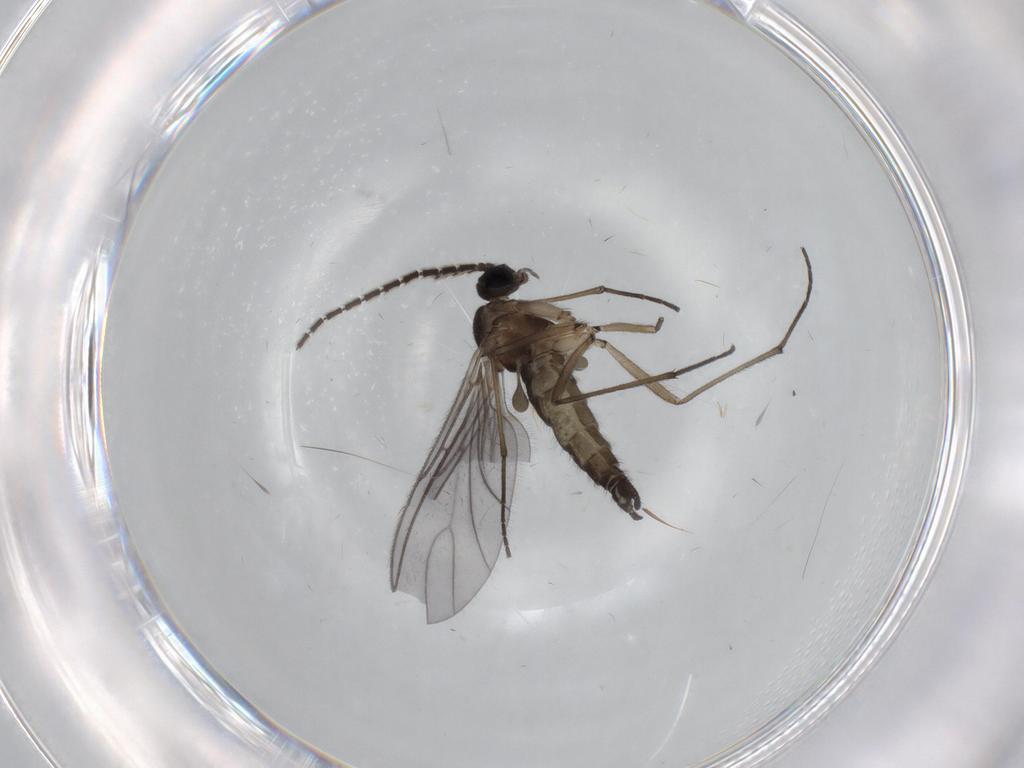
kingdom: Animalia
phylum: Arthropoda
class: Insecta
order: Diptera
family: Sciaridae
